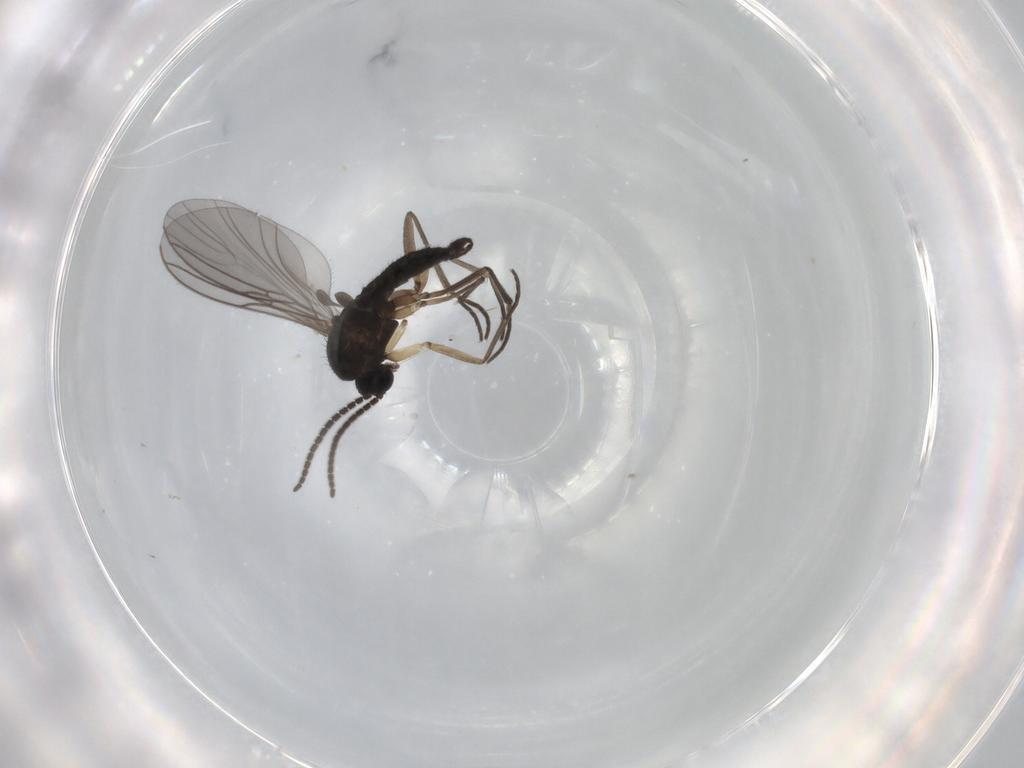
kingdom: Animalia
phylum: Arthropoda
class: Insecta
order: Diptera
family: Sciaridae
